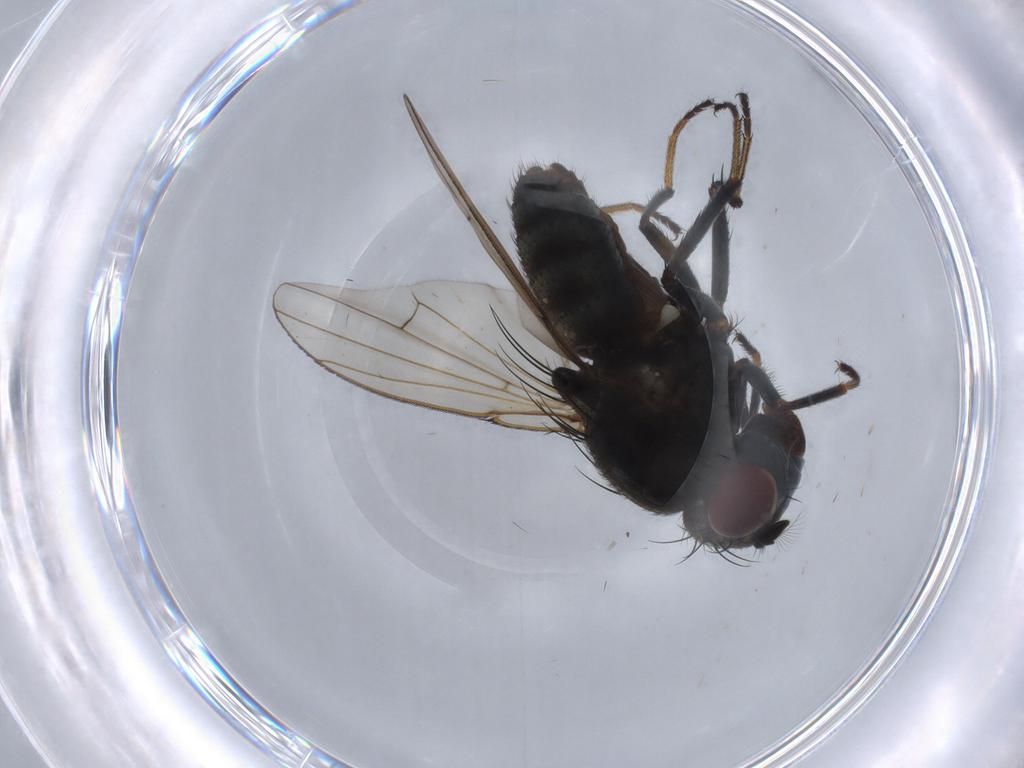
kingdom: Animalia
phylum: Arthropoda
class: Insecta
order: Diptera
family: Ephydridae
